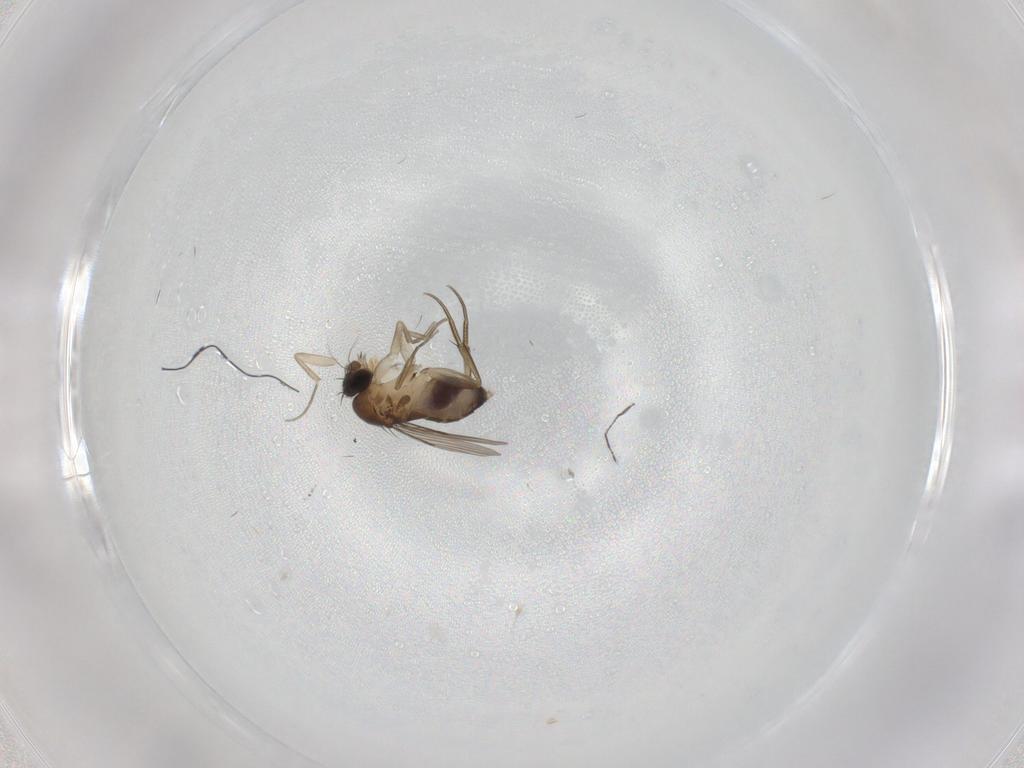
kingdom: Animalia
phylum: Arthropoda
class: Insecta
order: Diptera
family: Phoridae
